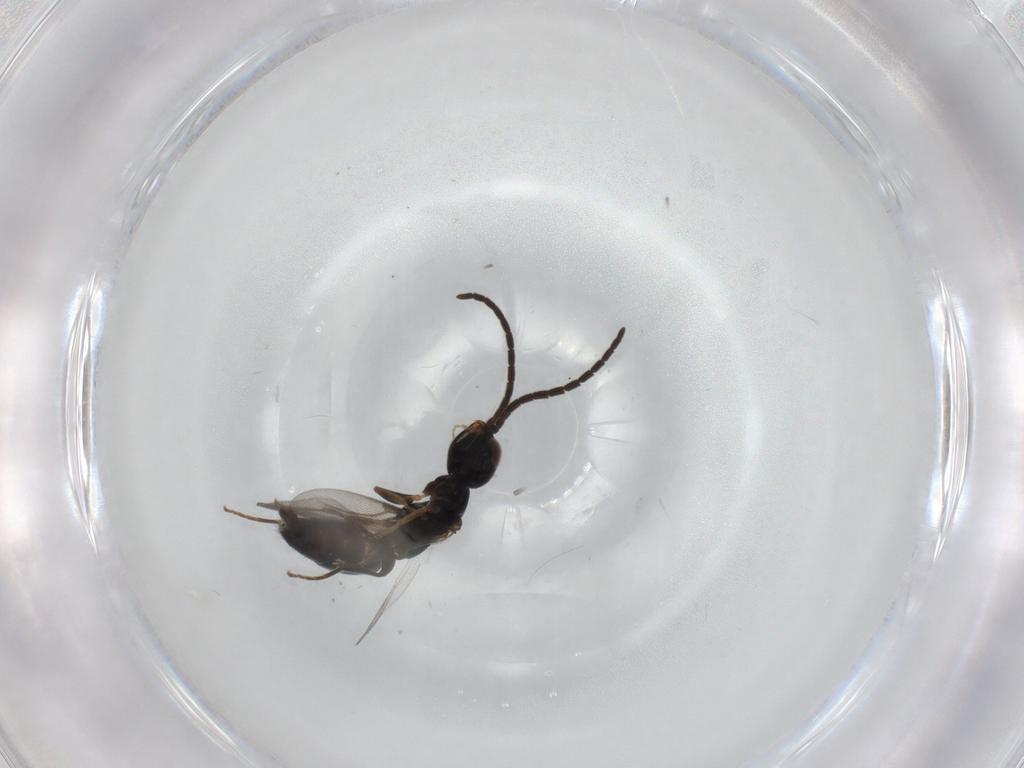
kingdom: Animalia
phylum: Arthropoda
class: Insecta
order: Hymenoptera
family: Bethylidae
